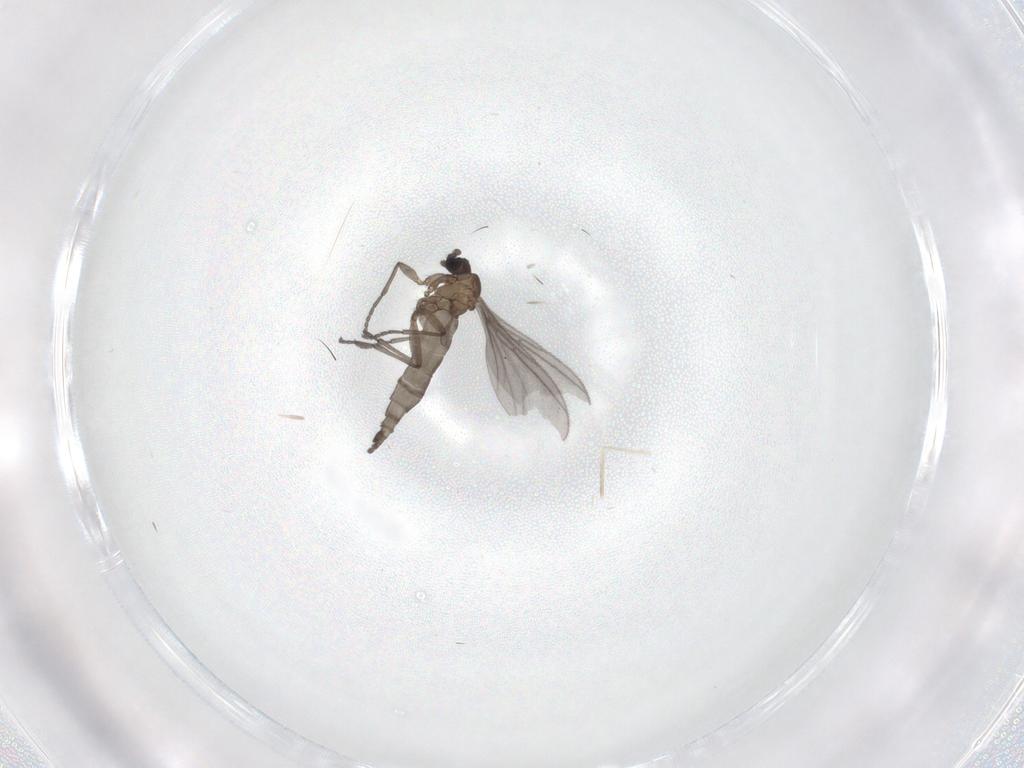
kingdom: Animalia
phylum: Arthropoda
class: Insecta
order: Diptera
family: Sciaridae
